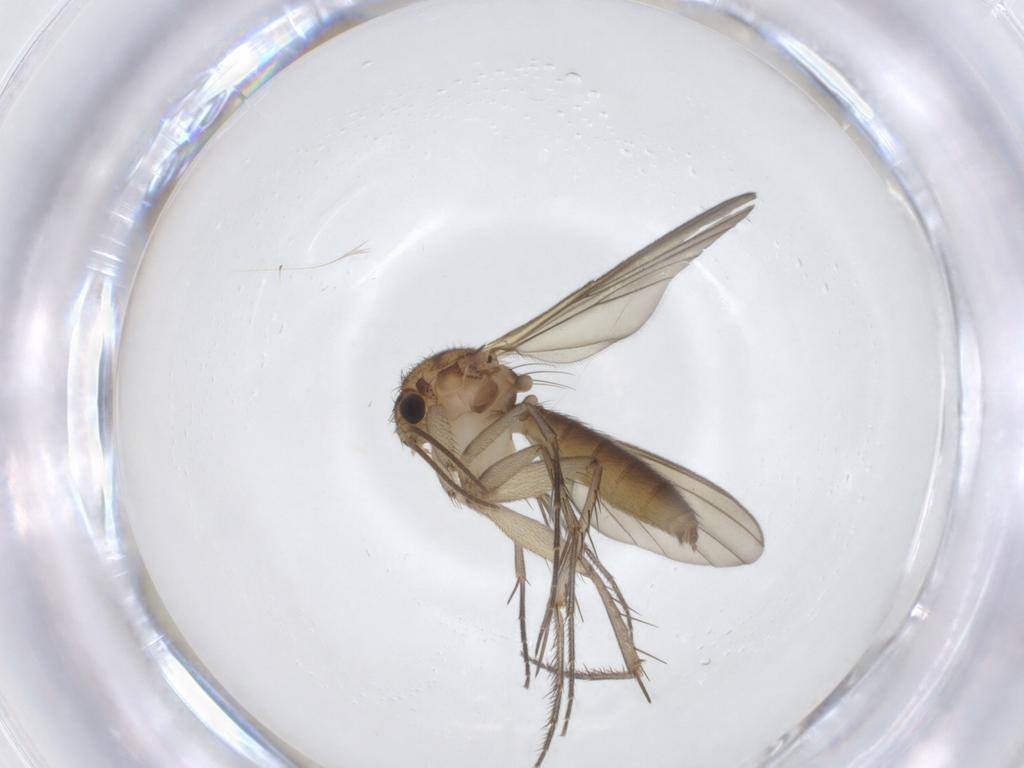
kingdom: Animalia
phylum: Arthropoda
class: Insecta
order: Diptera
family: Mycetophilidae
